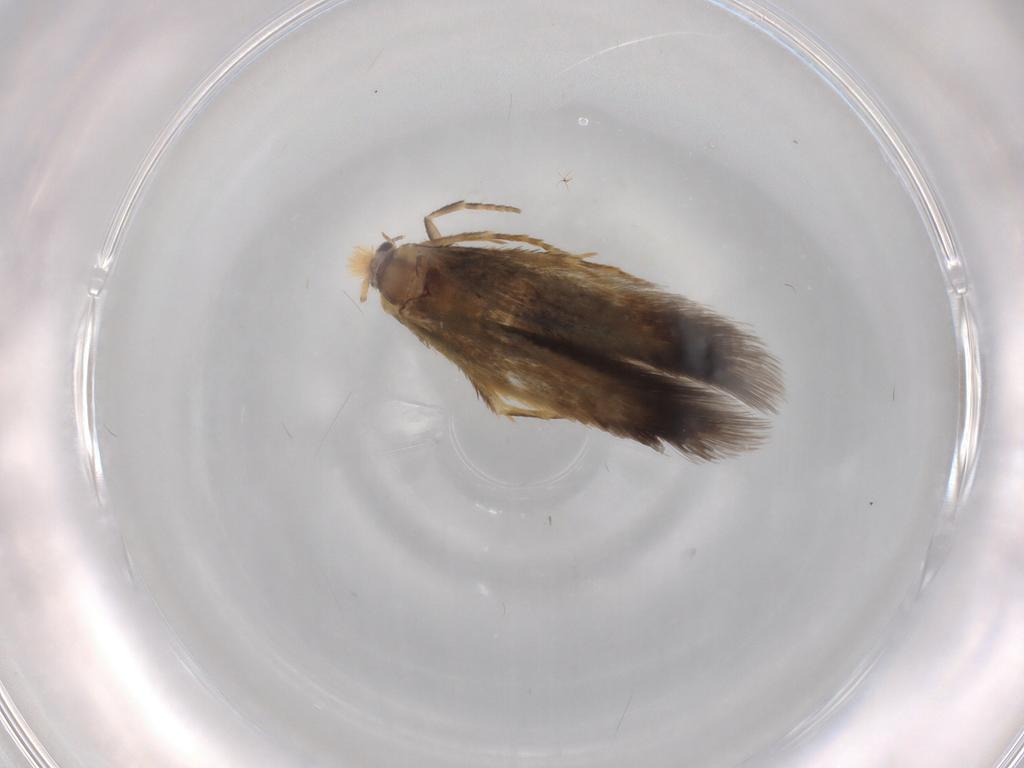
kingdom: Animalia
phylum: Arthropoda
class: Insecta
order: Lepidoptera
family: Nepticulidae
